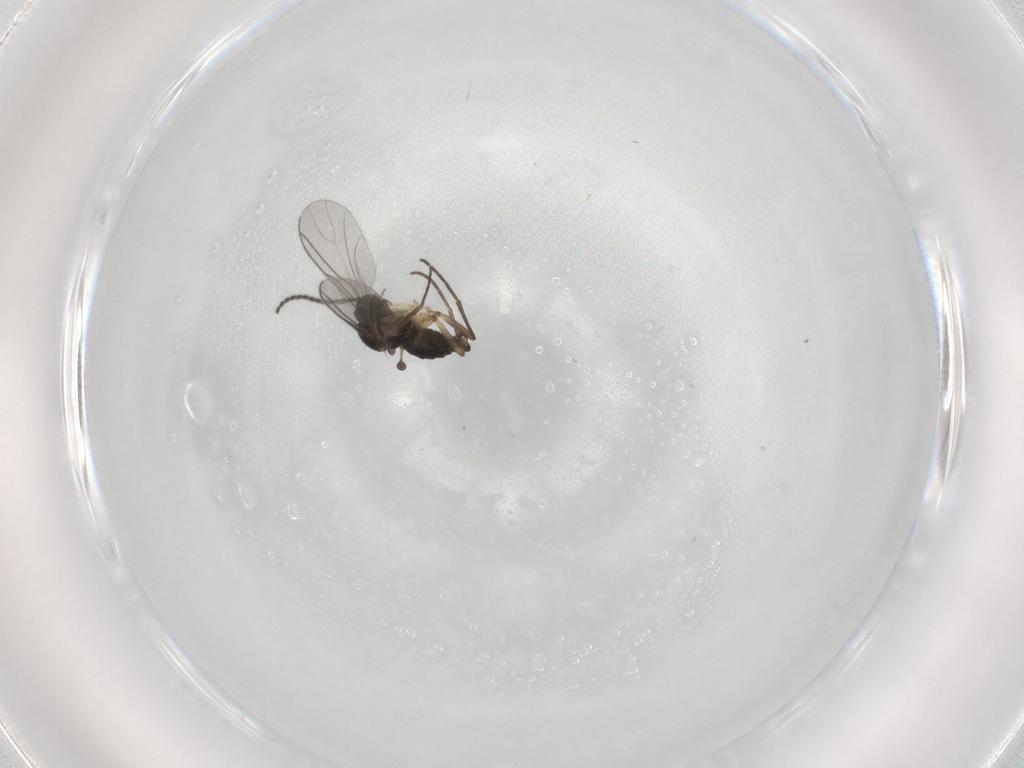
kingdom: Animalia
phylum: Arthropoda
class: Insecta
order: Diptera
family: Sciaridae
